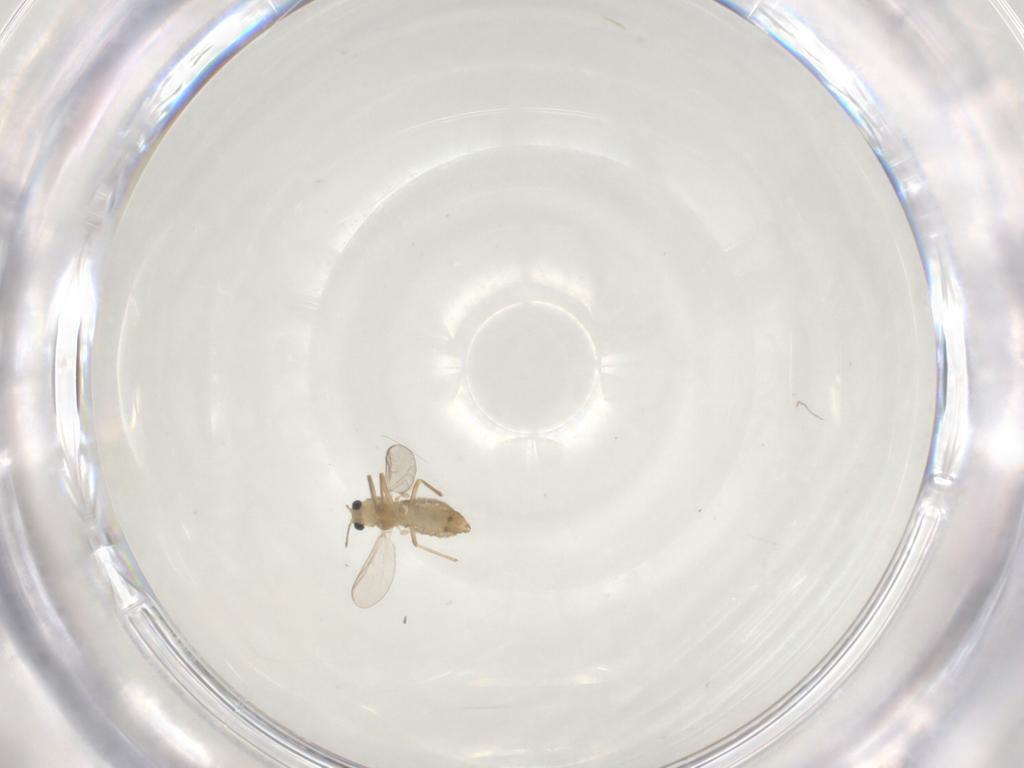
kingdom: Animalia
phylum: Arthropoda
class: Insecta
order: Diptera
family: Chironomidae
